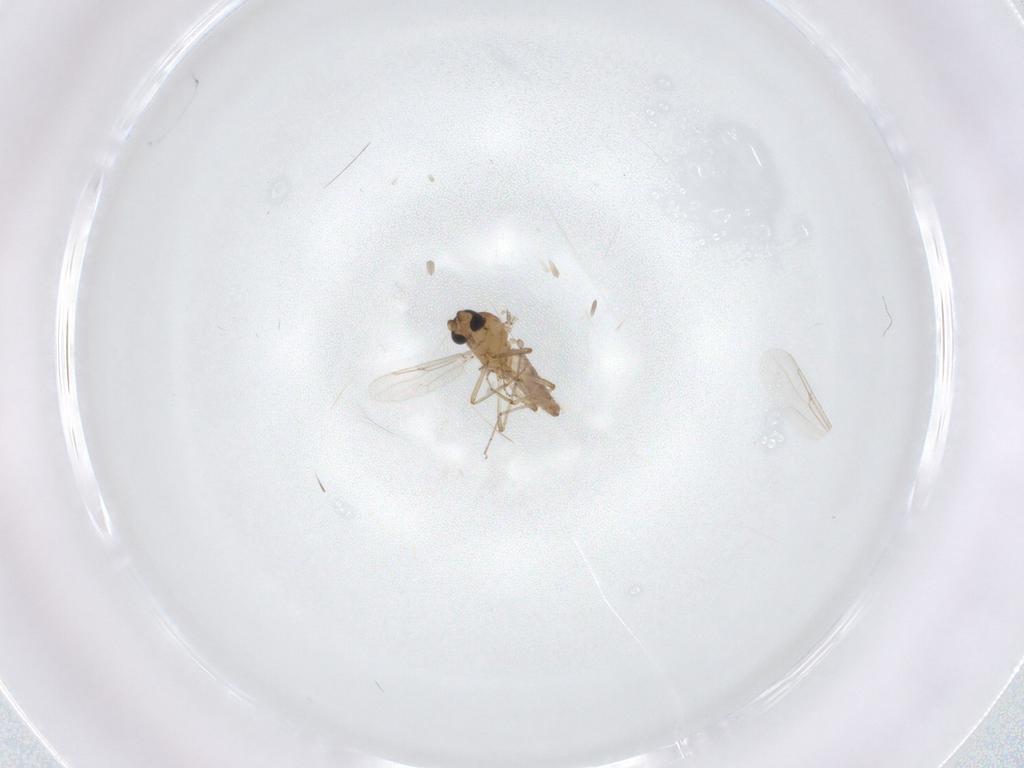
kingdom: Animalia
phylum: Arthropoda
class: Insecta
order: Diptera
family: Ceratopogonidae
